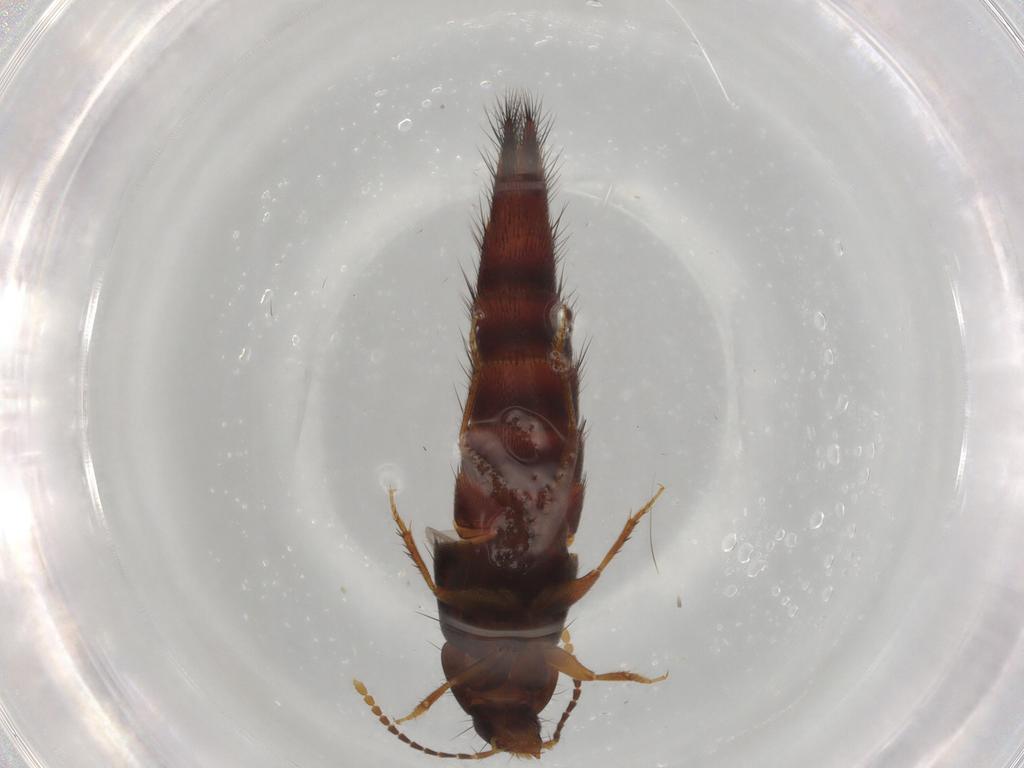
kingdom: Animalia
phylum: Arthropoda
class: Insecta
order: Coleoptera
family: Staphylinidae
